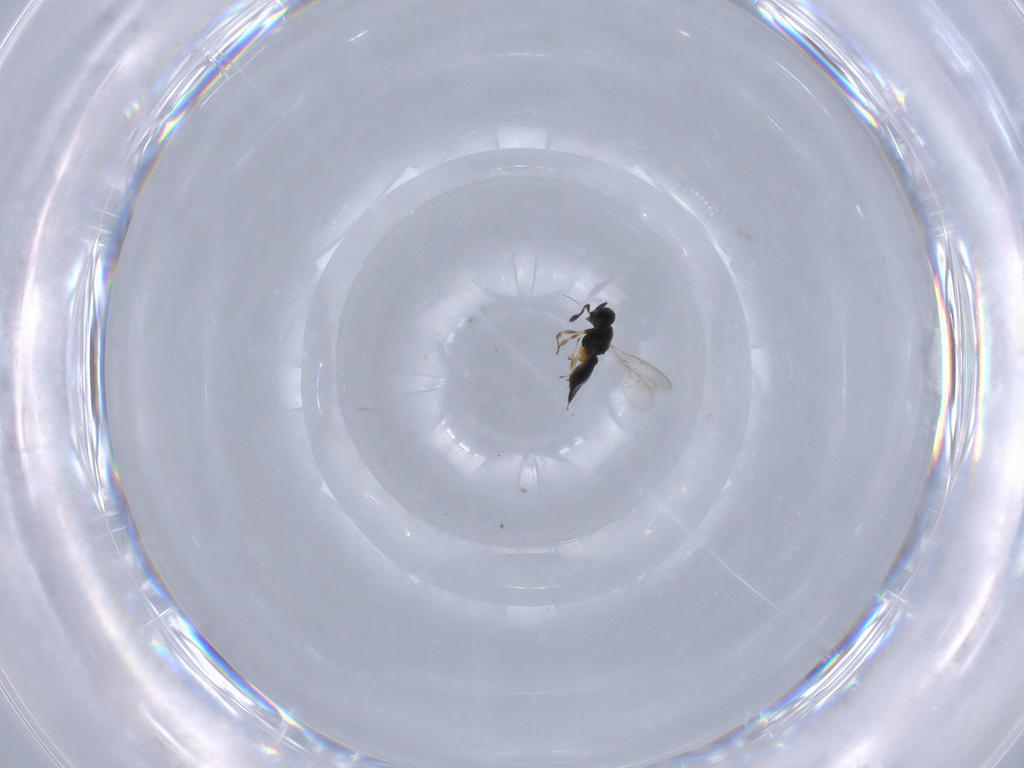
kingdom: Animalia
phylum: Arthropoda
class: Insecta
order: Hymenoptera
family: Scelionidae
